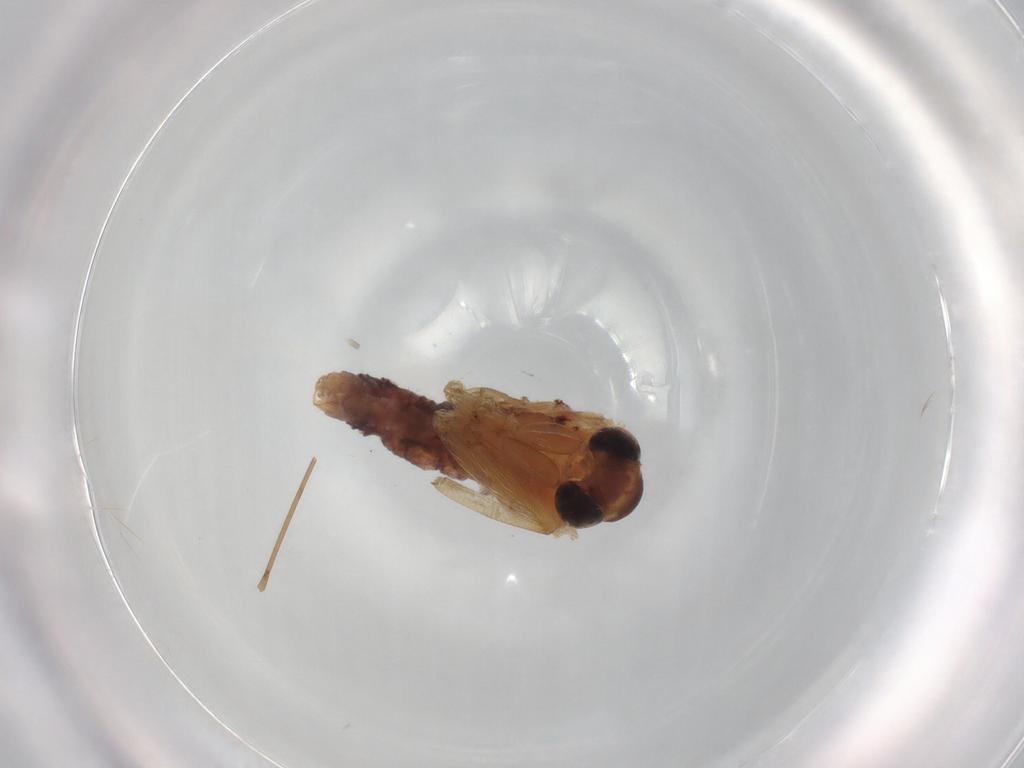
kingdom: Animalia
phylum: Arthropoda
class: Insecta
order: Diptera
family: Ceratopogonidae
